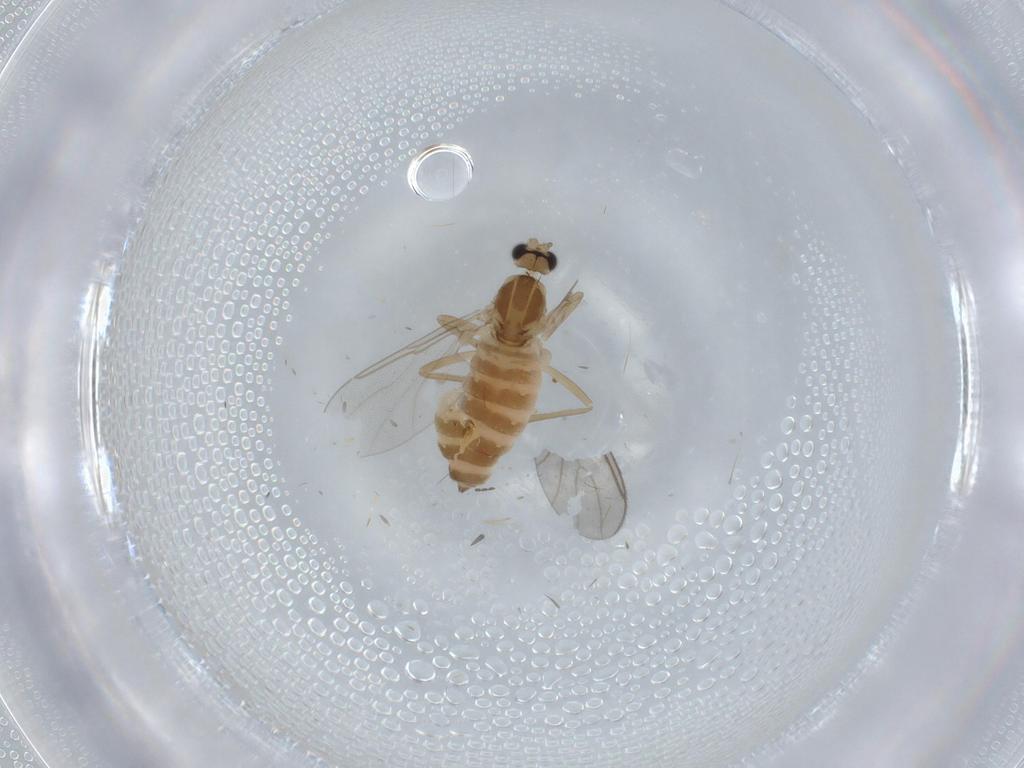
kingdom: Animalia
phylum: Arthropoda
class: Insecta
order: Diptera
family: Cecidomyiidae
